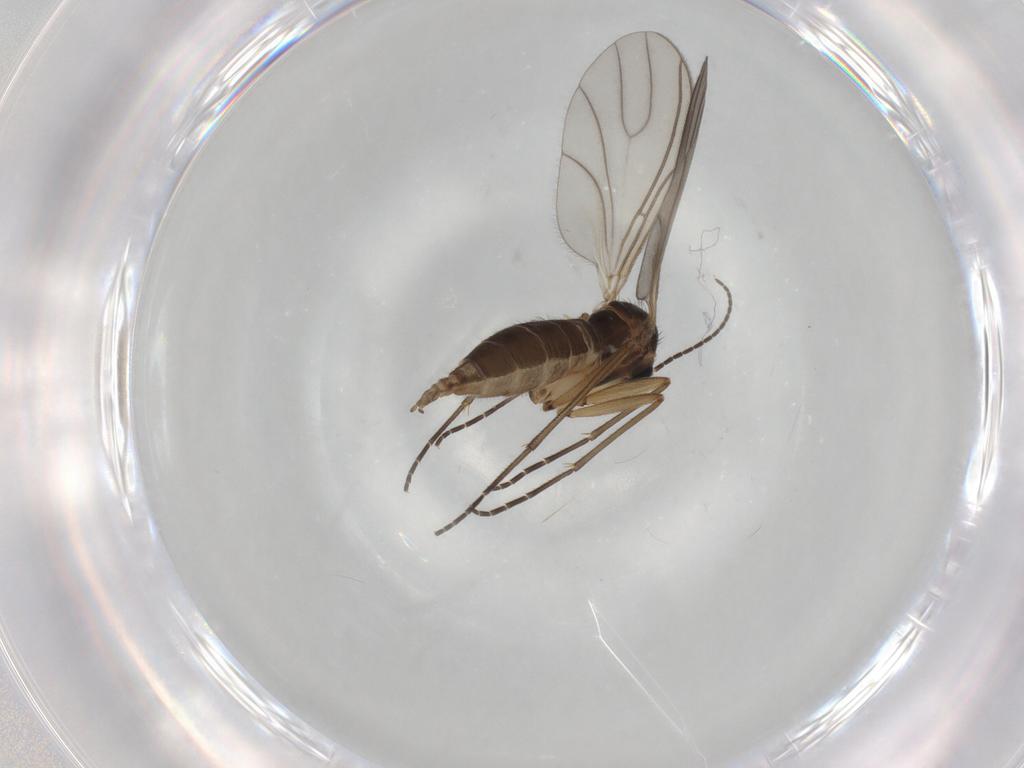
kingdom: Animalia
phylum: Arthropoda
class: Insecta
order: Diptera
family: Sciaridae
